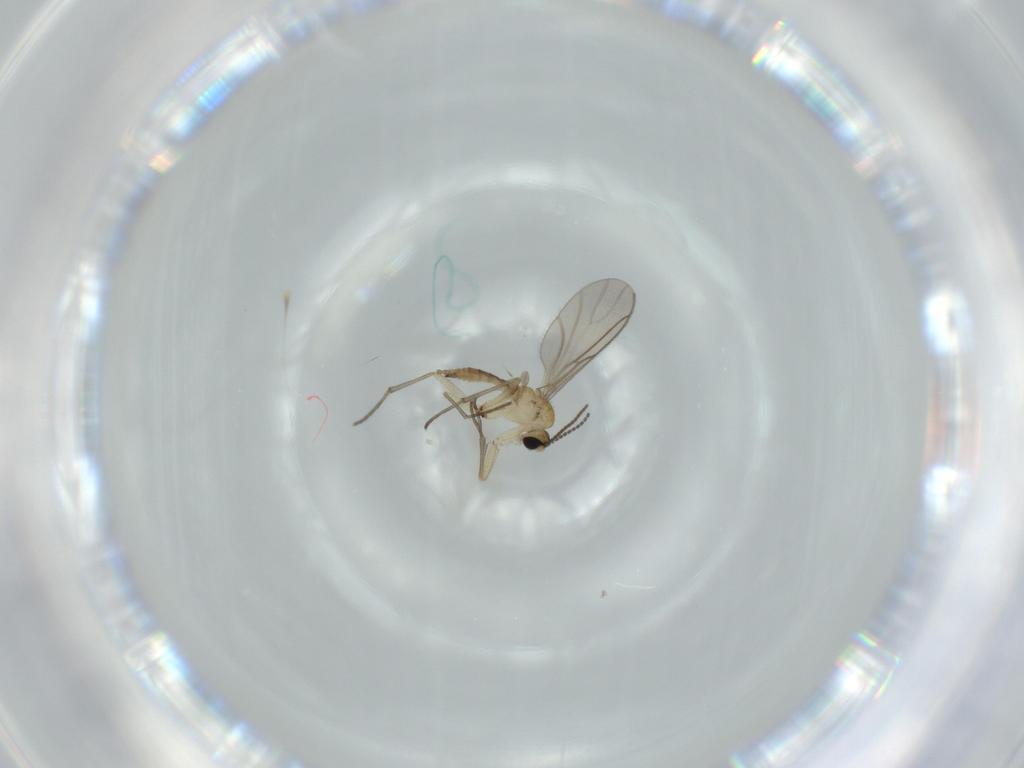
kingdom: Animalia
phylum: Arthropoda
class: Insecta
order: Diptera
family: Sciaridae
